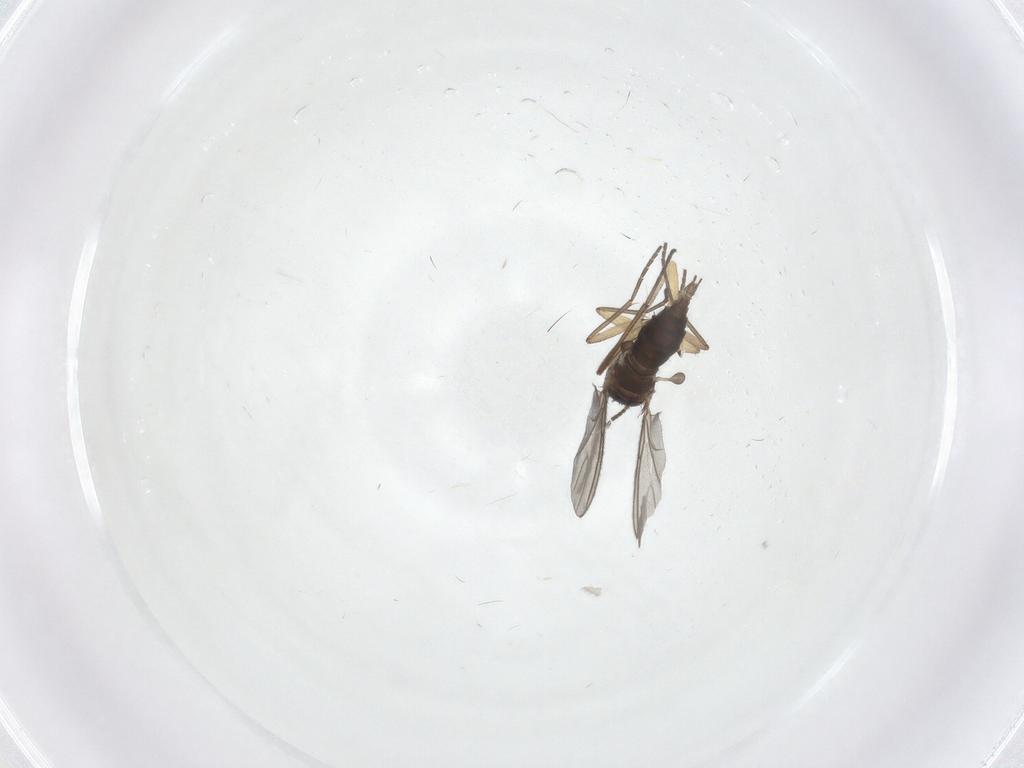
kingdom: Animalia
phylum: Arthropoda
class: Insecta
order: Diptera
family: Sciaridae
